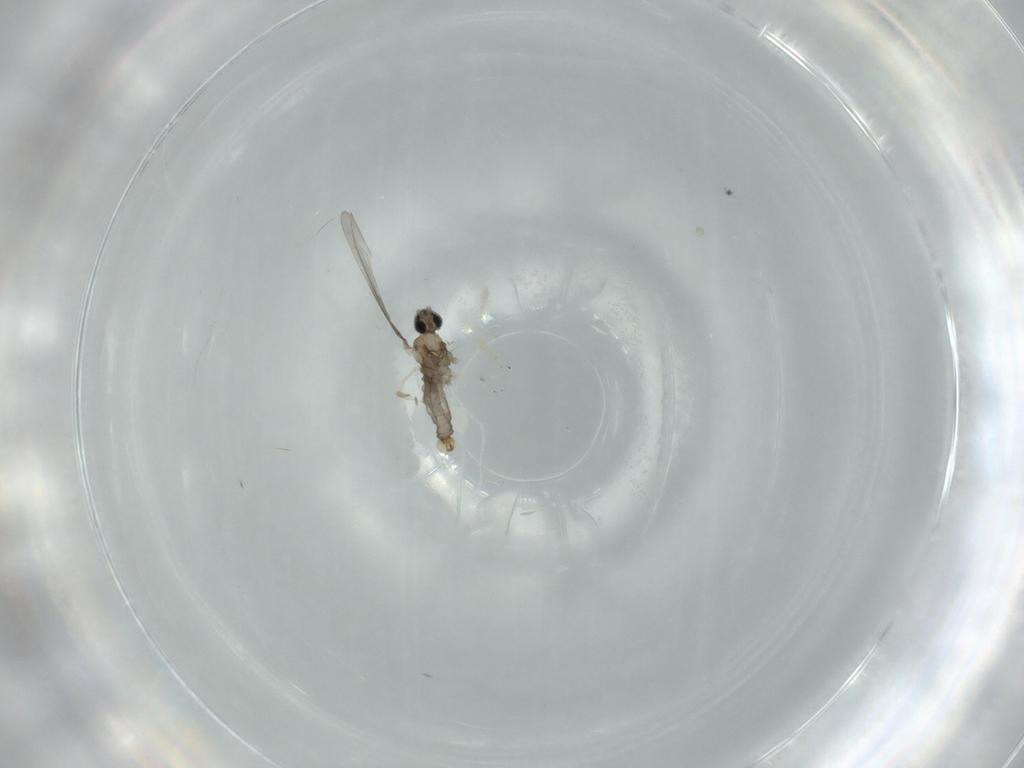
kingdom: Animalia
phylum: Arthropoda
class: Insecta
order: Diptera
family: Cecidomyiidae
